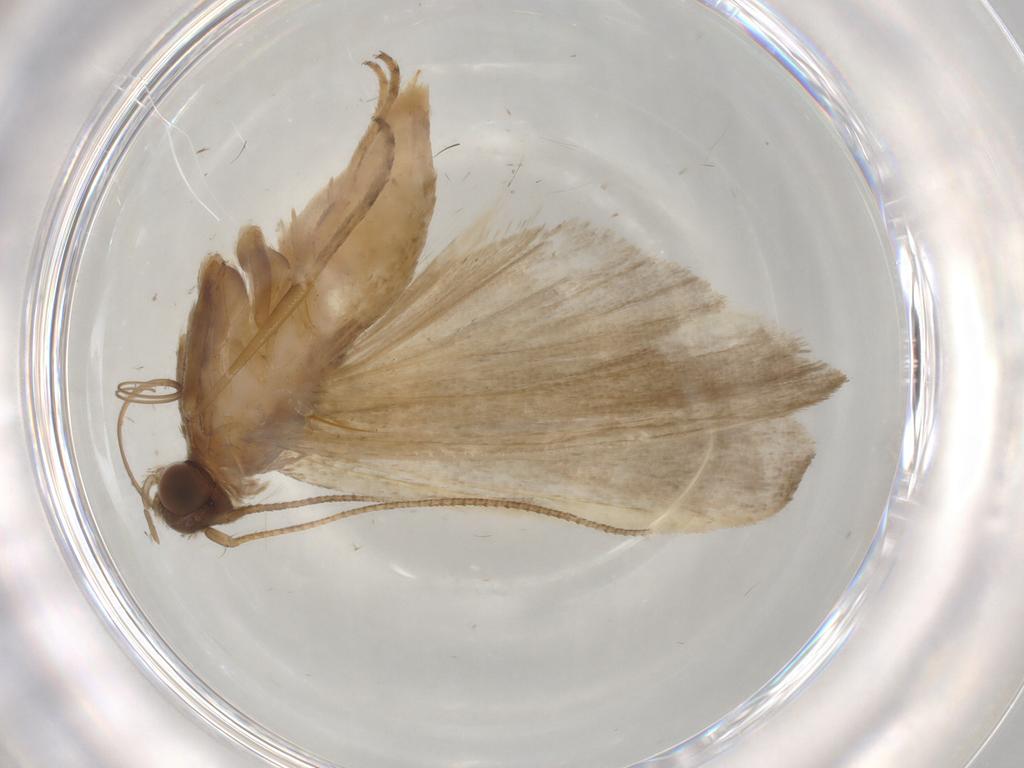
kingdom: Animalia
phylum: Arthropoda
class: Insecta
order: Lepidoptera
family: Noctuidae
